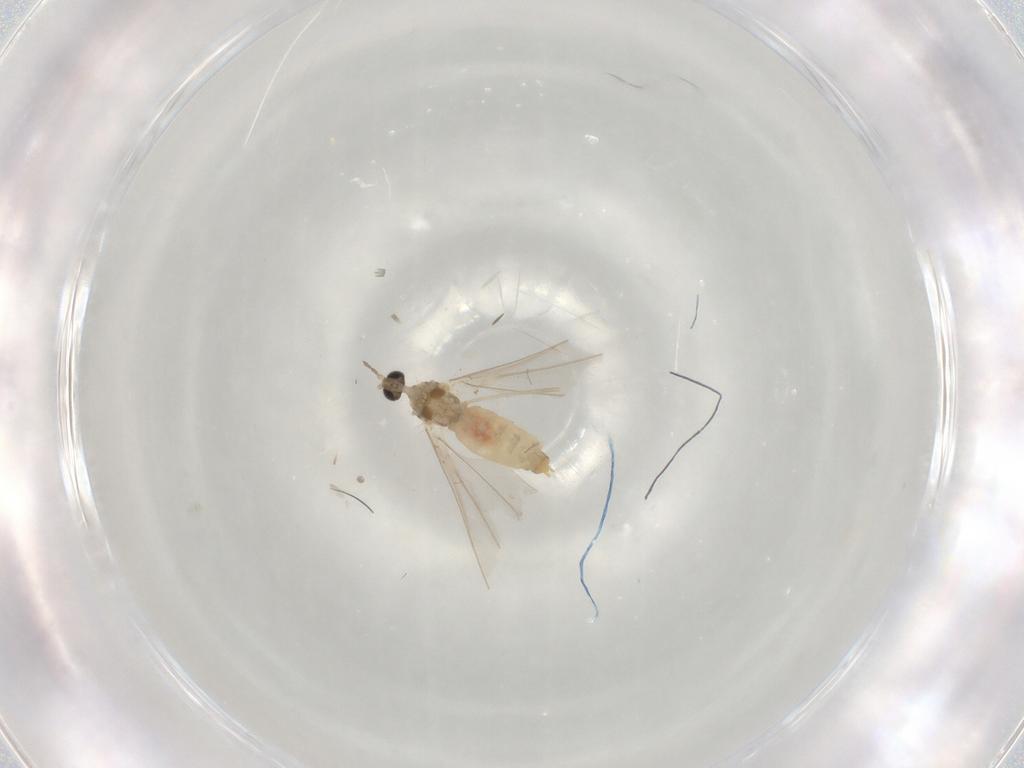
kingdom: Animalia
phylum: Arthropoda
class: Insecta
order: Diptera
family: Cecidomyiidae
